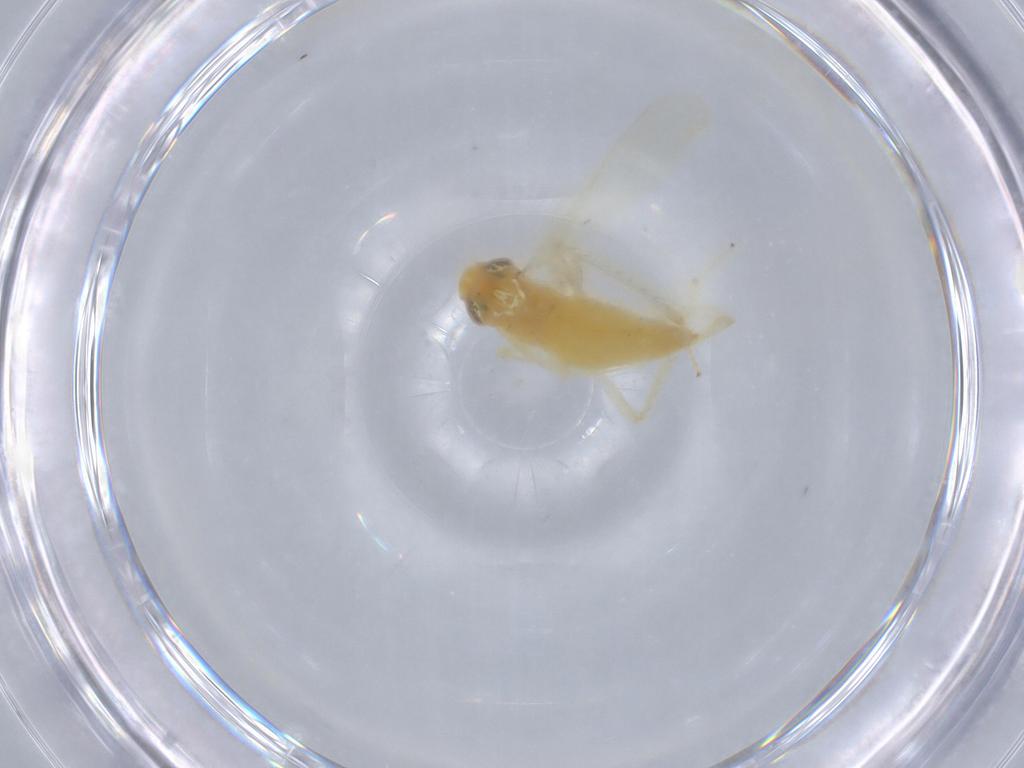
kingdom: Animalia
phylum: Arthropoda
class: Insecta
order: Hemiptera
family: Cicadellidae
